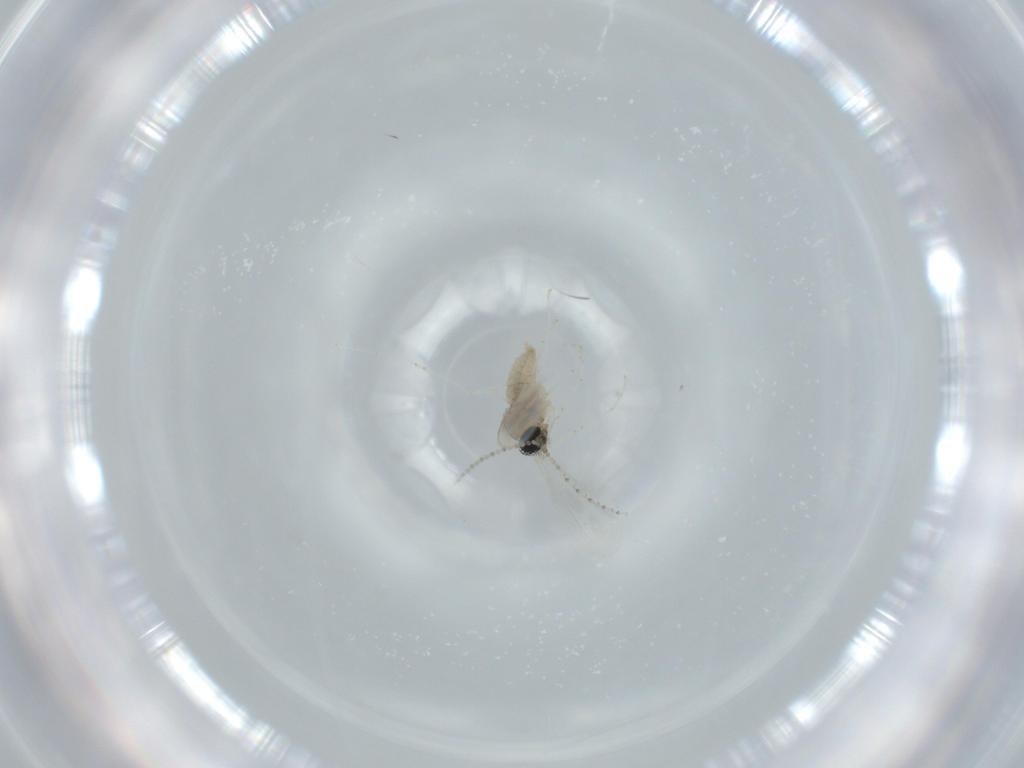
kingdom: Animalia
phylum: Arthropoda
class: Insecta
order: Diptera
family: Cecidomyiidae
